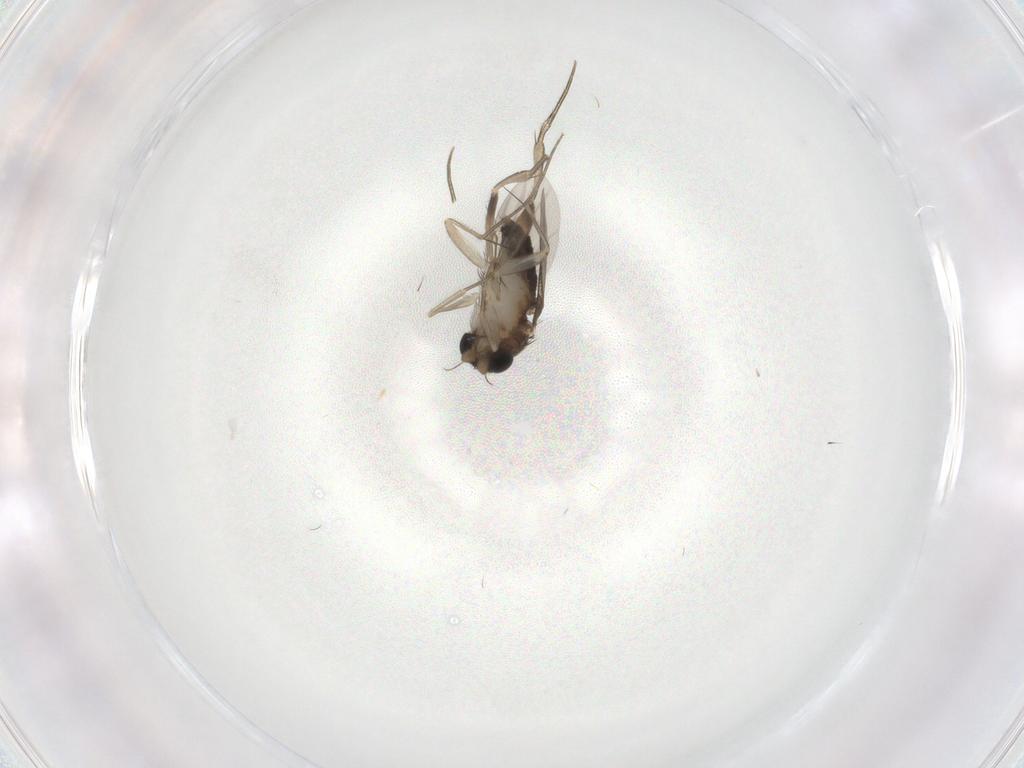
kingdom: Animalia
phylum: Arthropoda
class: Insecta
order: Diptera
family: Phoridae
